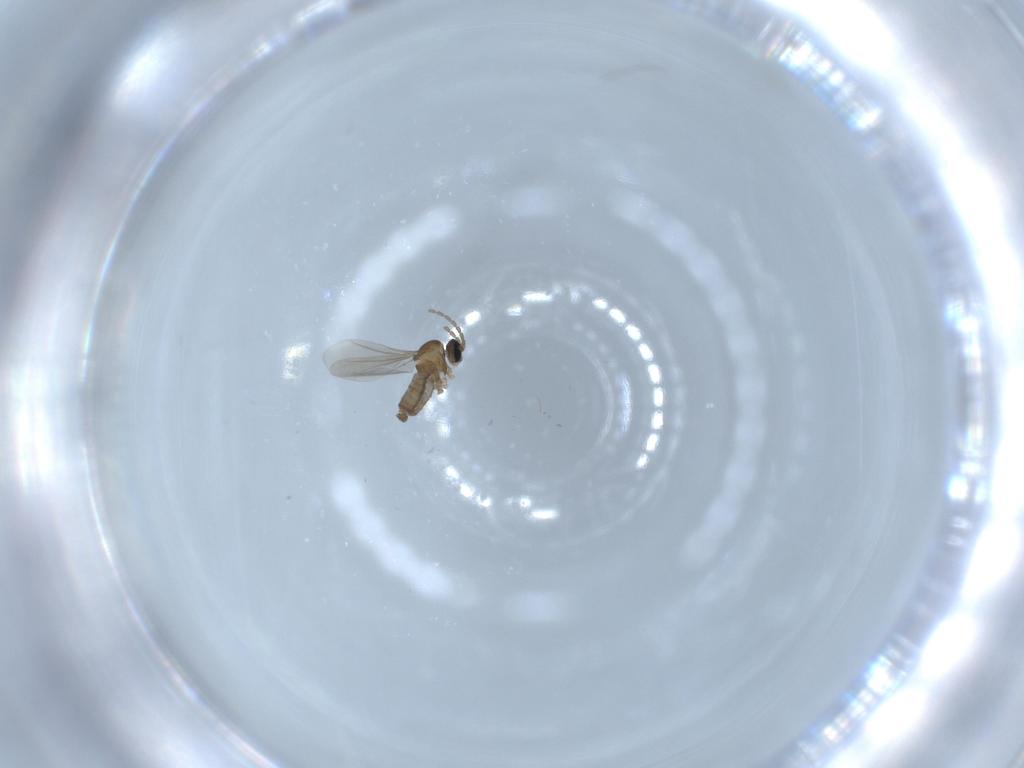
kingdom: Animalia
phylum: Arthropoda
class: Insecta
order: Diptera
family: Cecidomyiidae
